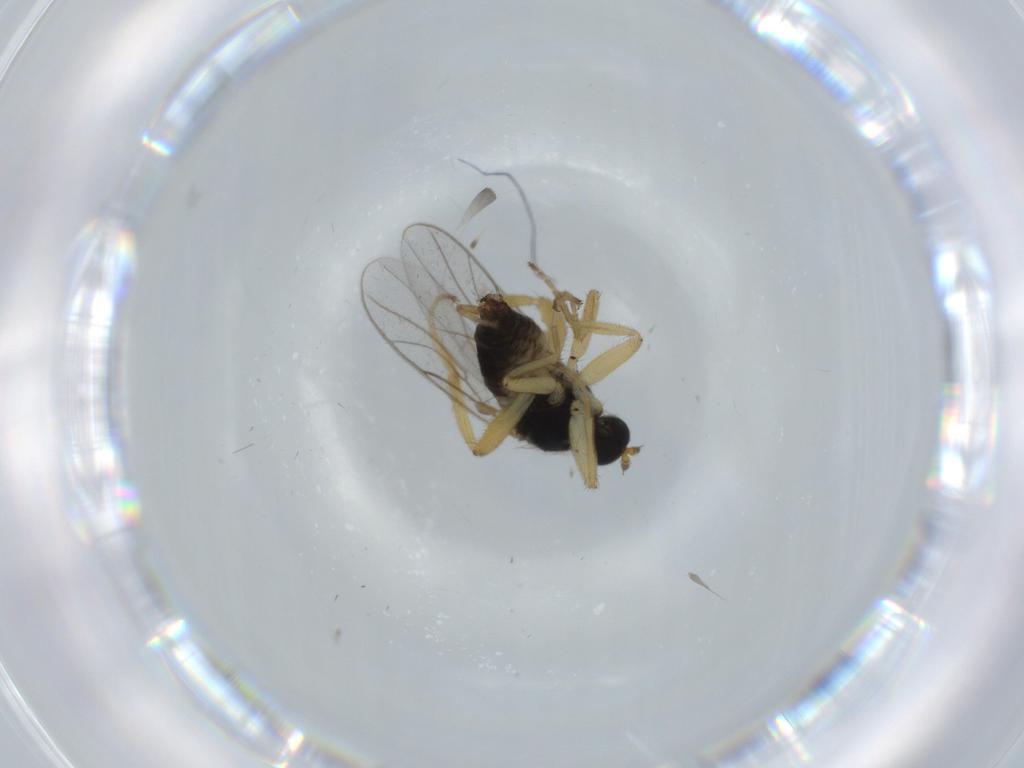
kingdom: Animalia
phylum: Arthropoda
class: Insecta
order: Diptera
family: Hybotidae
